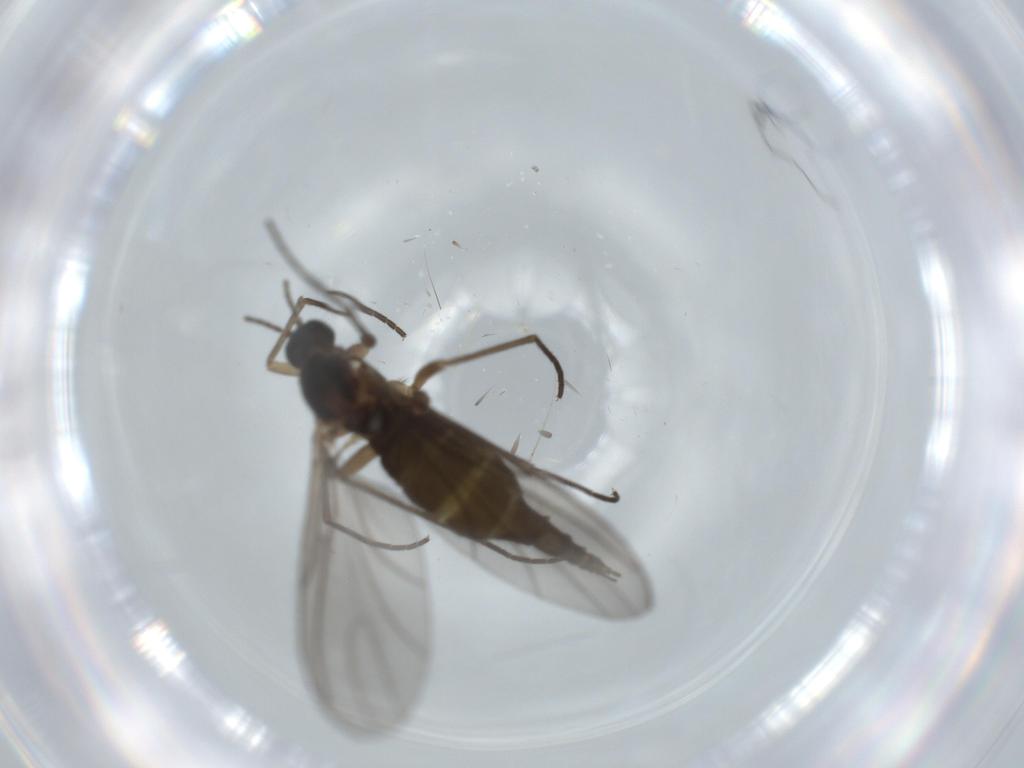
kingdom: Animalia
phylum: Arthropoda
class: Insecta
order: Diptera
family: Sciaridae
